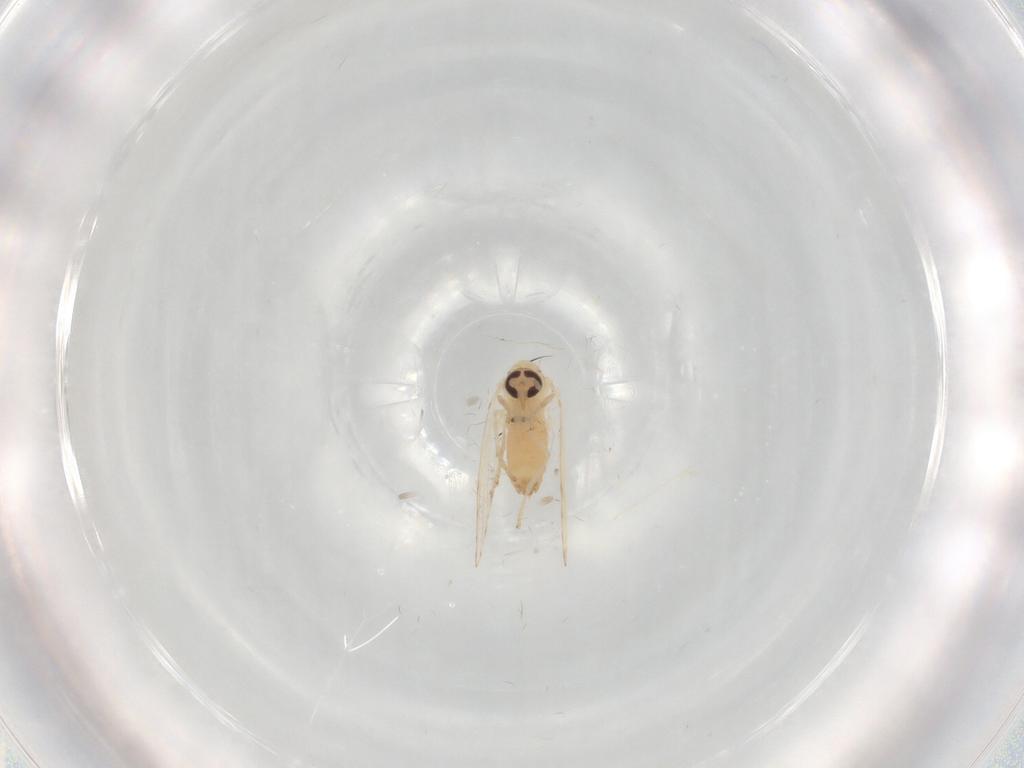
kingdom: Animalia
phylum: Arthropoda
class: Insecta
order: Diptera
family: Psychodidae
